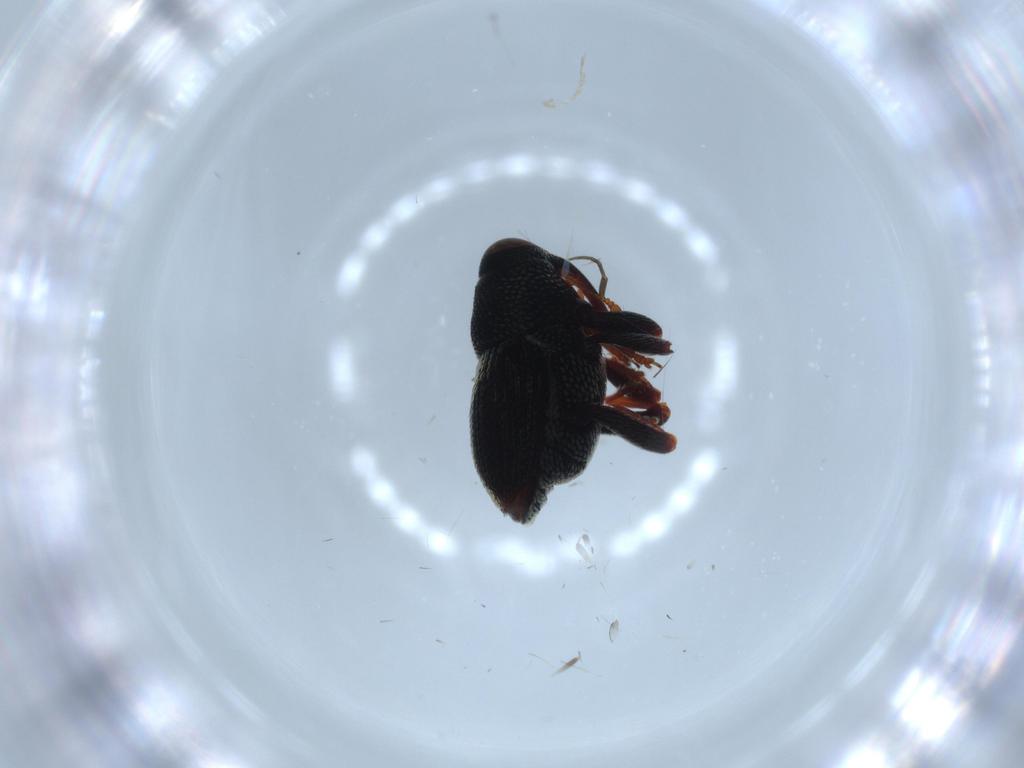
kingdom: Animalia
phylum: Arthropoda
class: Insecta
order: Coleoptera
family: Curculionidae
